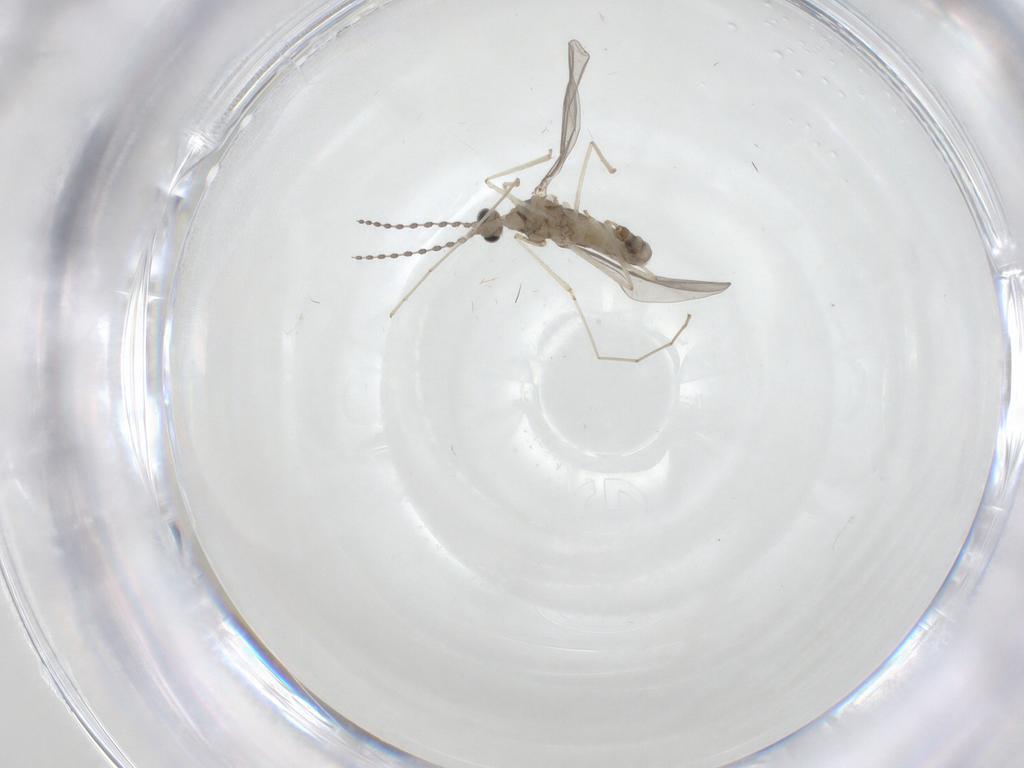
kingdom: Animalia
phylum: Arthropoda
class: Insecta
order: Diptera
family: Cecidomyiidae
